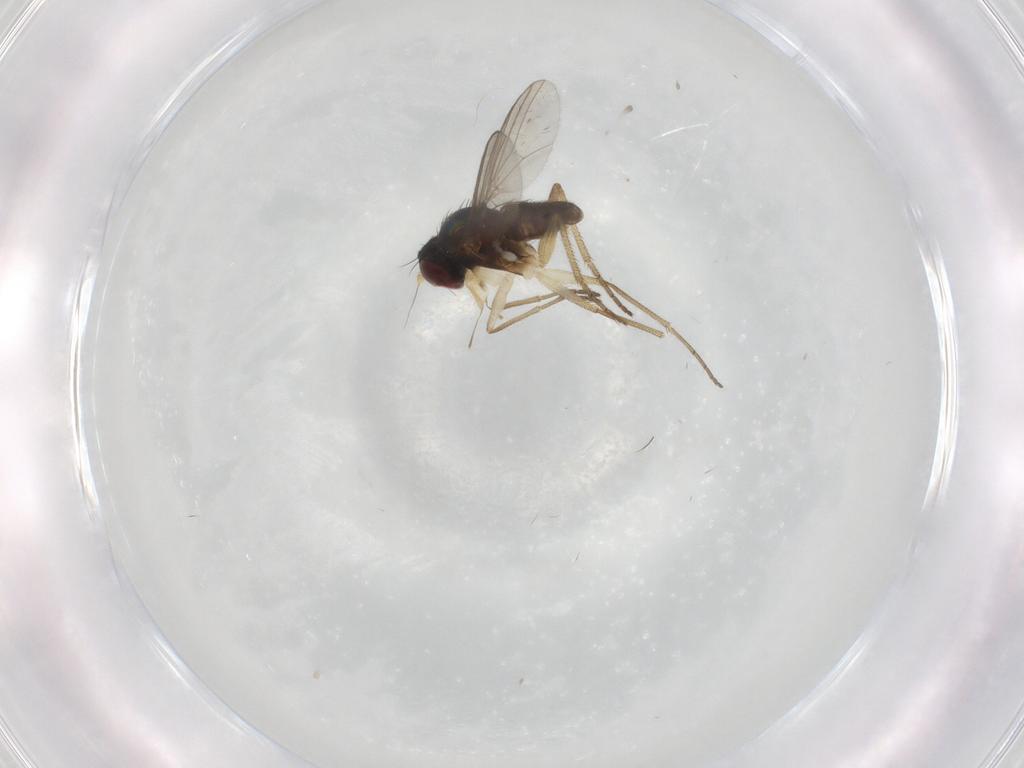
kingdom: Animalia
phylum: Arthropoda
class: Insecta
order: Diptera
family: Dolichopodidae
